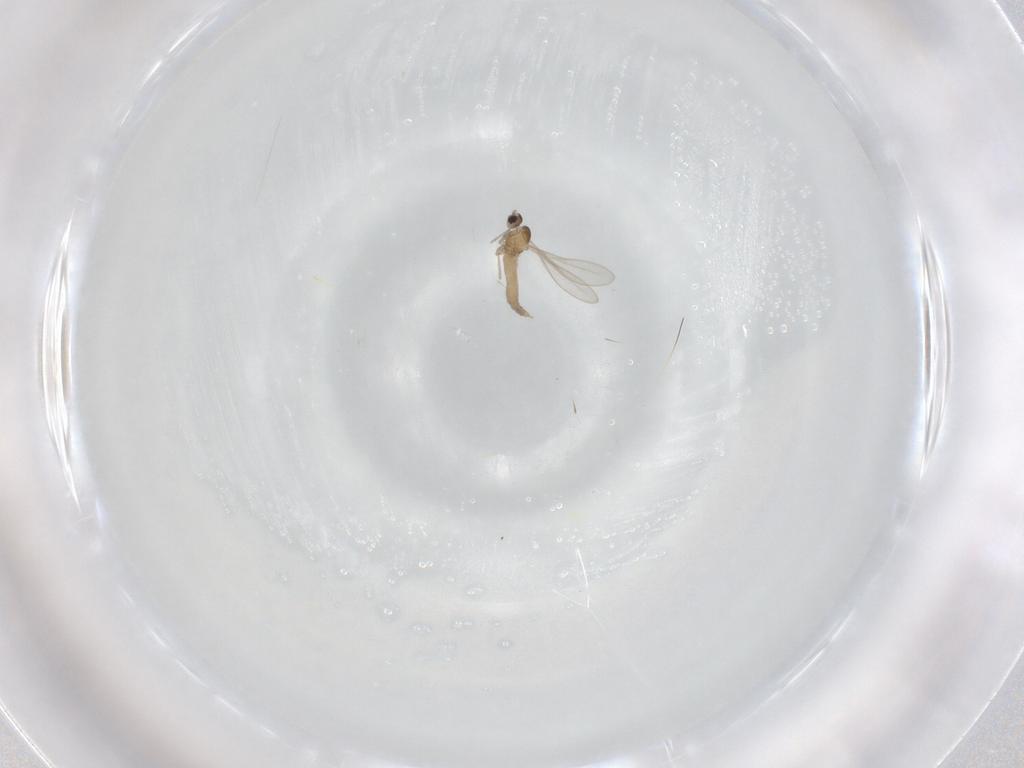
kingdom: Animalia
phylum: Arthropoda
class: Insecta
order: Diptera
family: Cecidomyiidae
